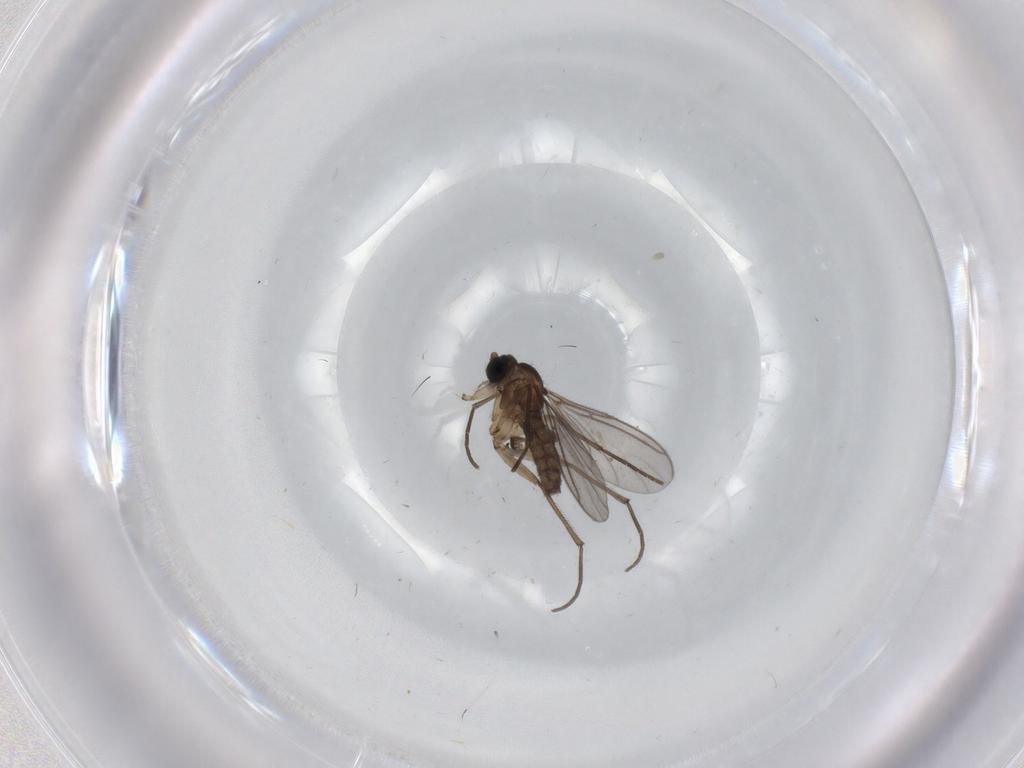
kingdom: Animalia
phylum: Arthropoda
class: Insecta
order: Diptera
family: Sciaridae
